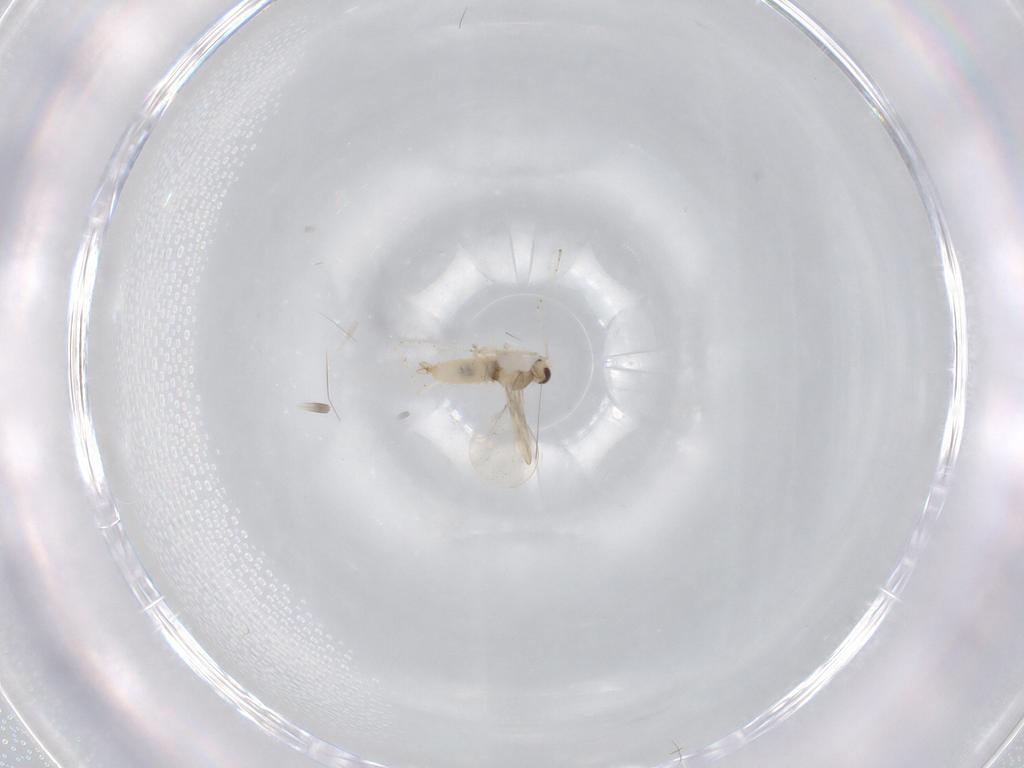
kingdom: Animalia
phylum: Arthropoda
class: Insecta
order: Diptera
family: Cecidomyiidae
